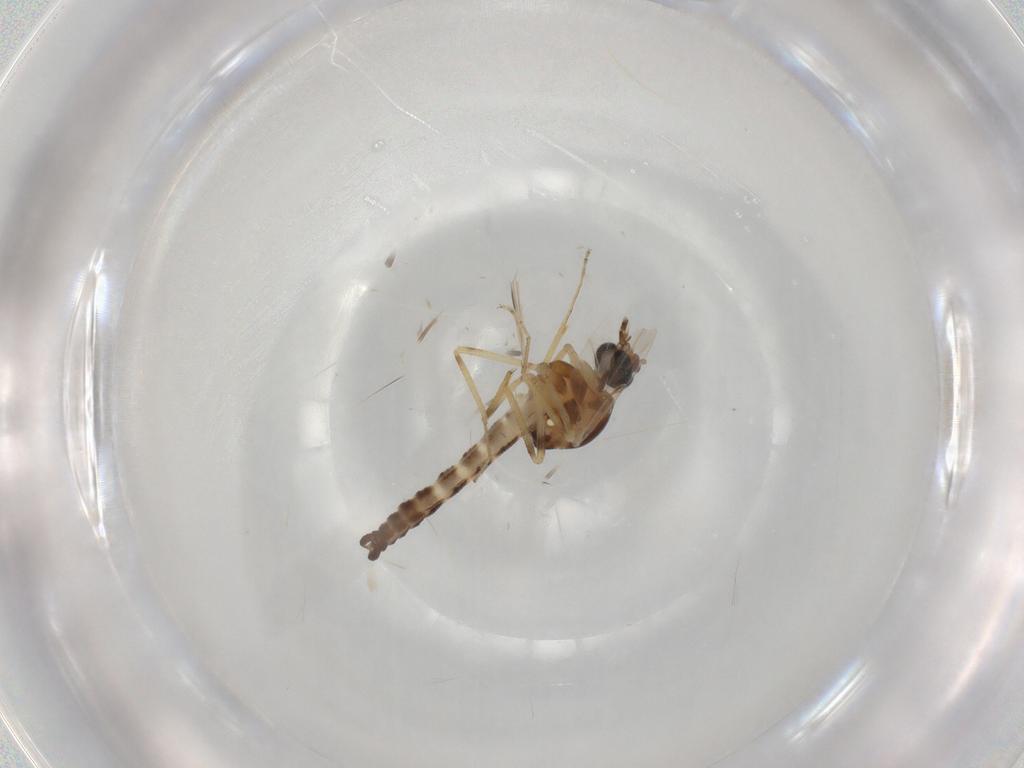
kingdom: Animalia
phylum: Arthropoda
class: Insecta
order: Diptera
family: Ceratopogonidae
